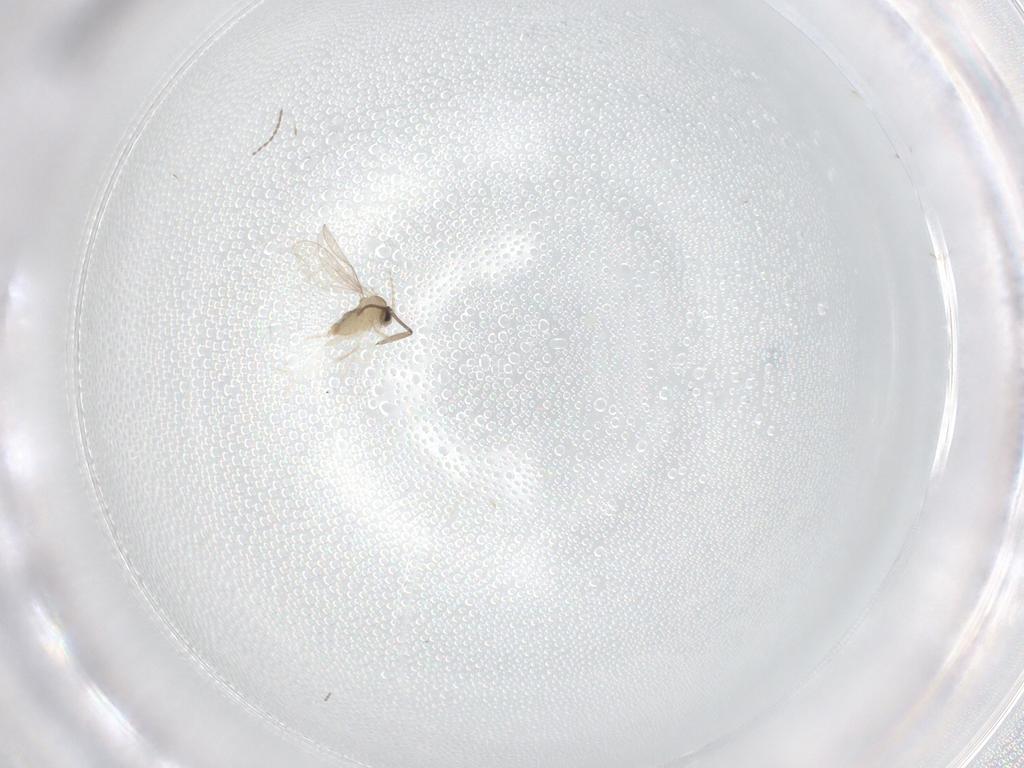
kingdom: Animalia
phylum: Arthropoda
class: Insecta
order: Diptera
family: Cecidomyiidae
